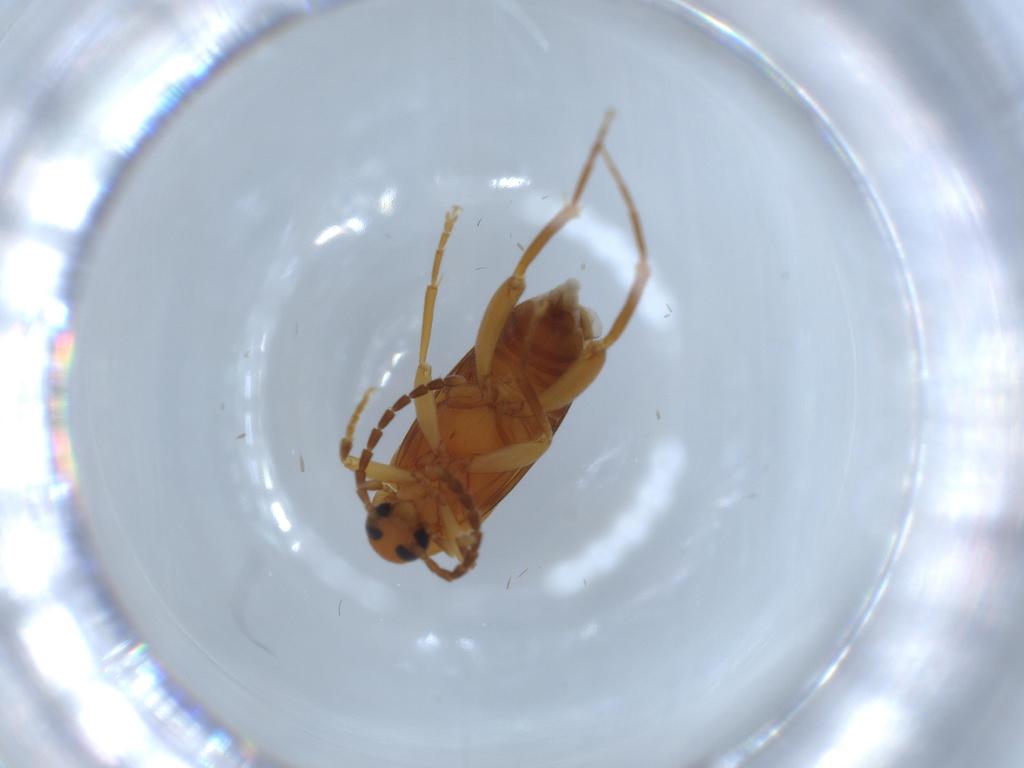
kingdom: Animalia
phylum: Arthropoda
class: Insecta
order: Coleoptera
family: Scraptiidae
